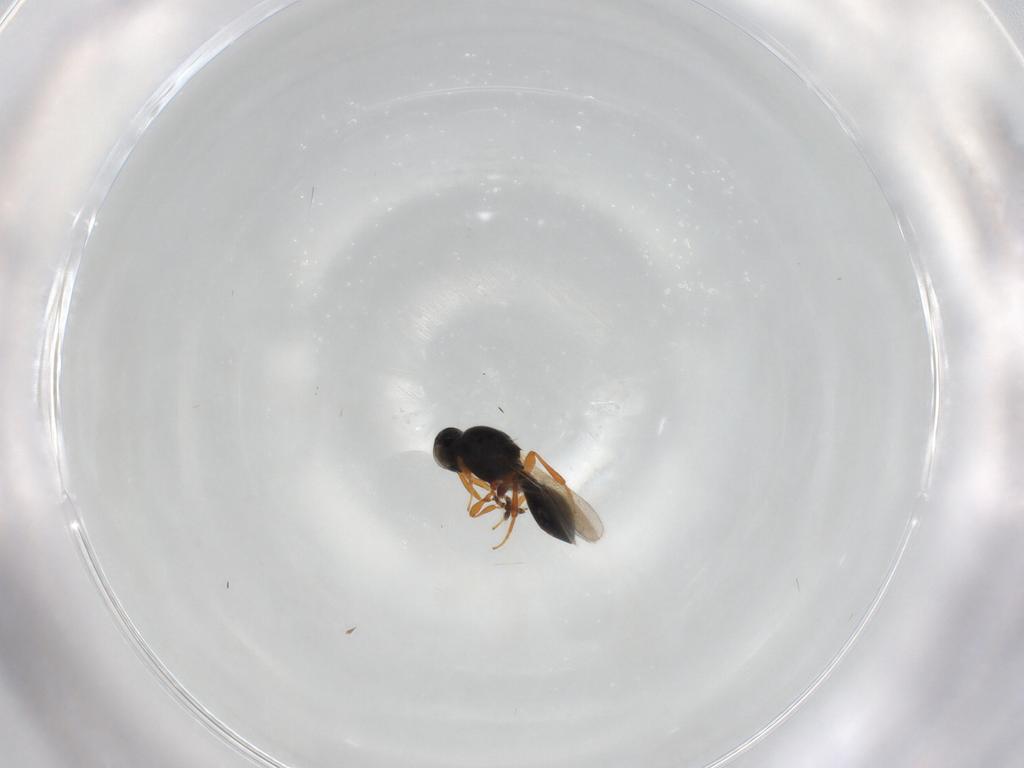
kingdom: Animalia
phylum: Arthropoda
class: Insecta
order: Hymenoptera
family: Platygastridae
